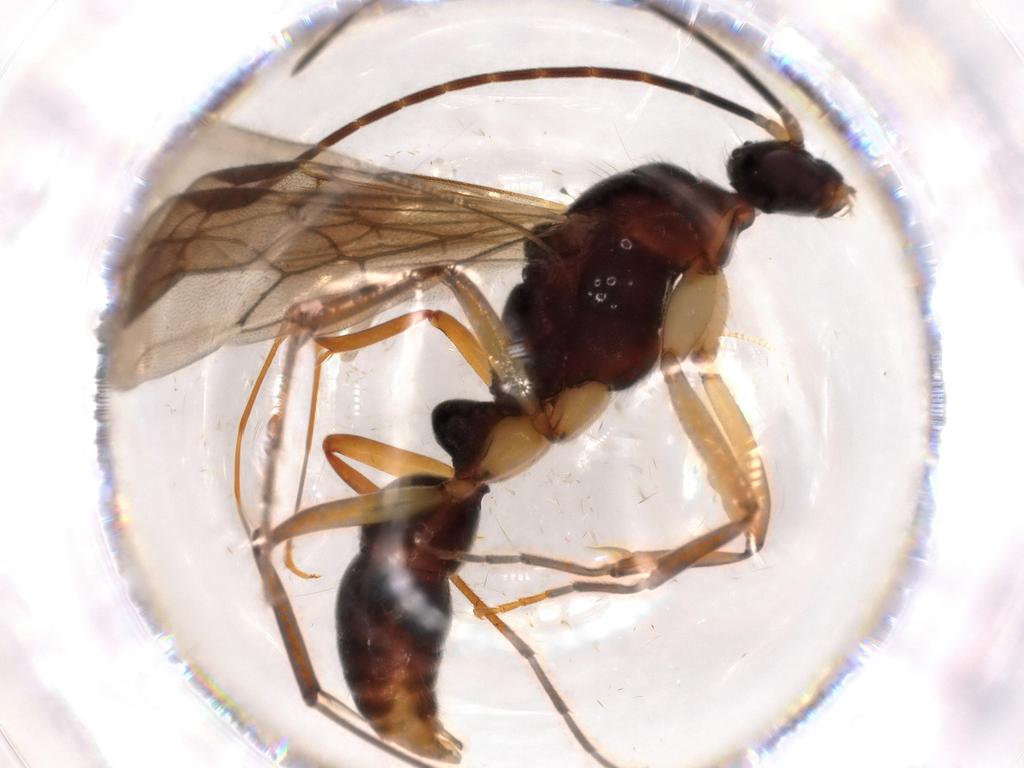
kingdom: Animalia
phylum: Arthropoda
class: Insecta
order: Hymenoptera
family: Formicidae
